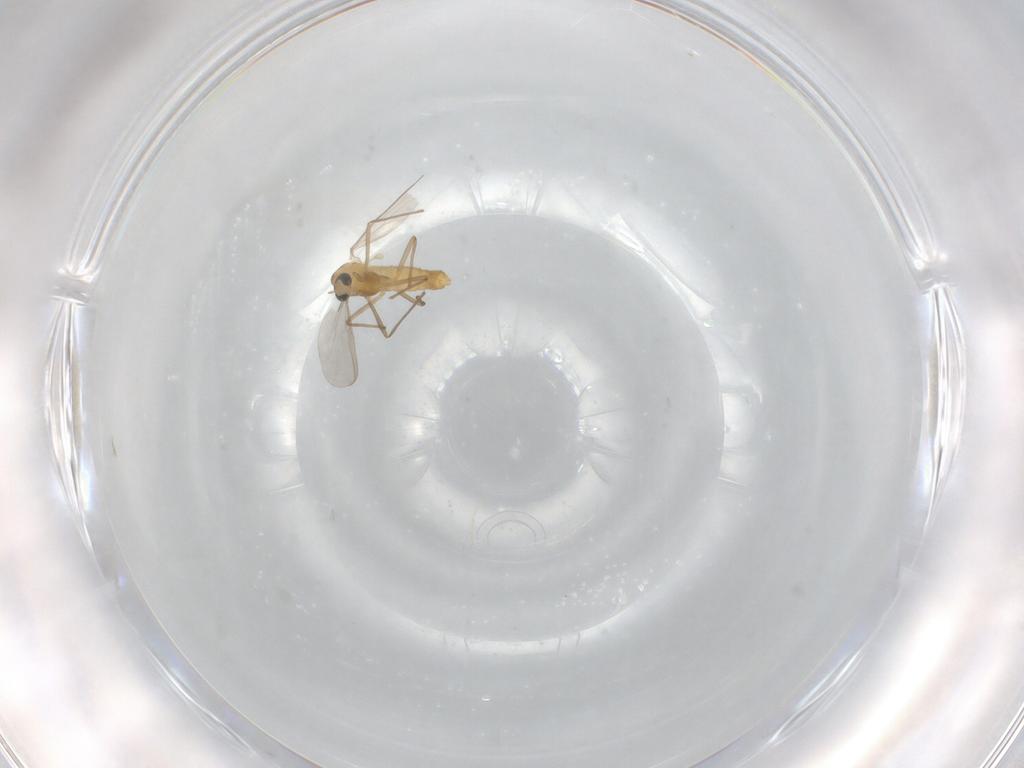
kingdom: Animalia
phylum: Arthropoda
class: Insecta
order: Diptera
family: Chironomidae
